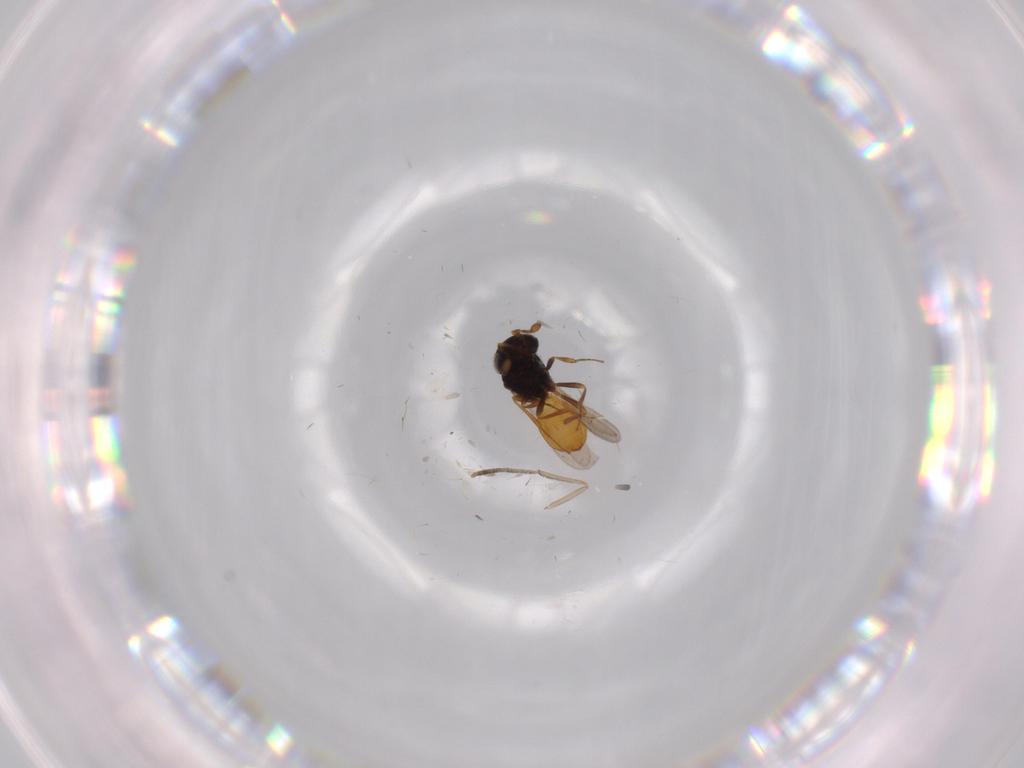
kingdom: Animalia
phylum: Arthropoda
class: Insecta
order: Hymenoptera
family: Scelionidae
